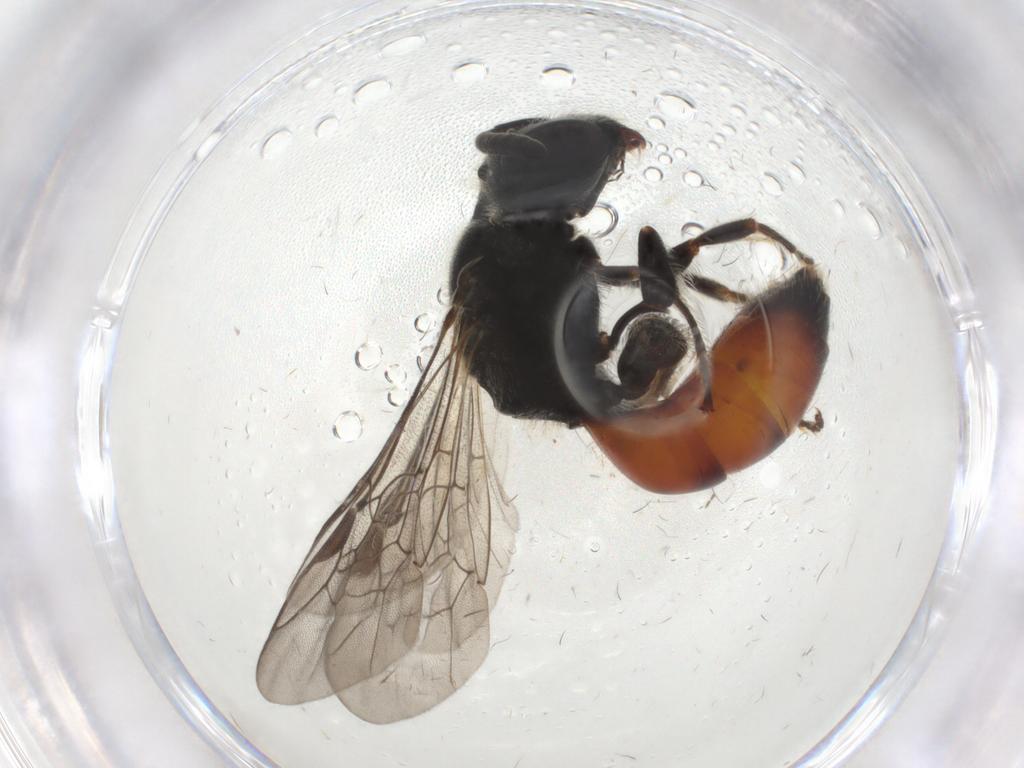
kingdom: Animalia
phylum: Arthropoda
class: Insecta
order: Hymenoptera
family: Halictidae
